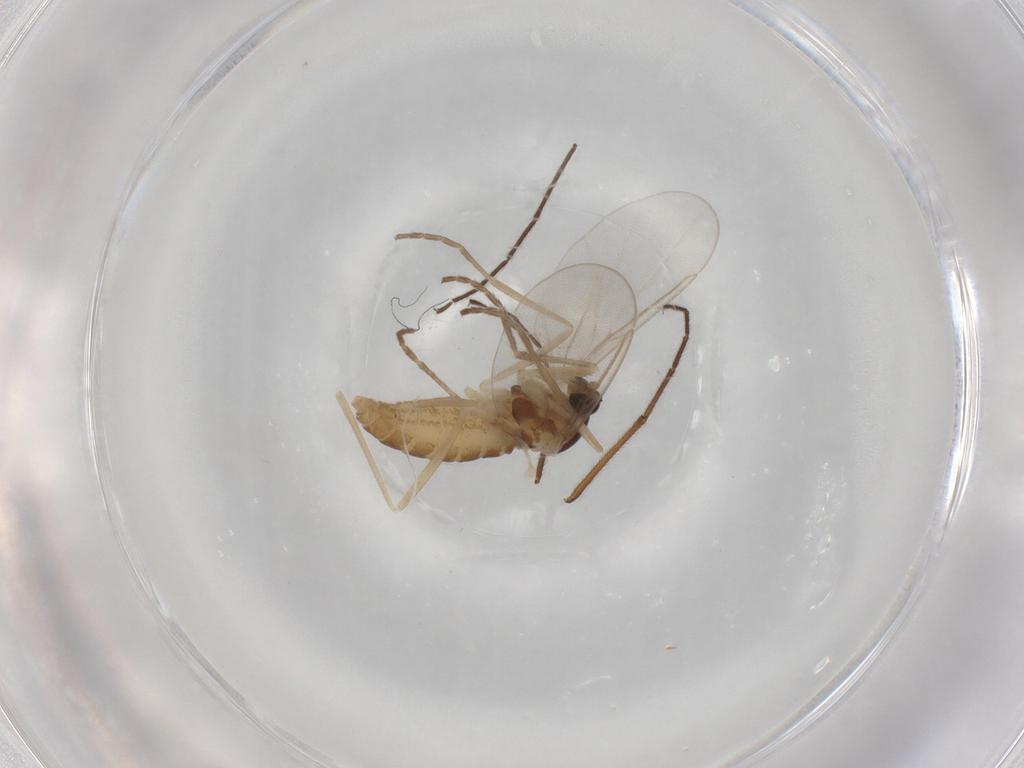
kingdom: Animalia
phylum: Arthropoda
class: Insecta
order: Diptera
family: Cecidomyiidae
